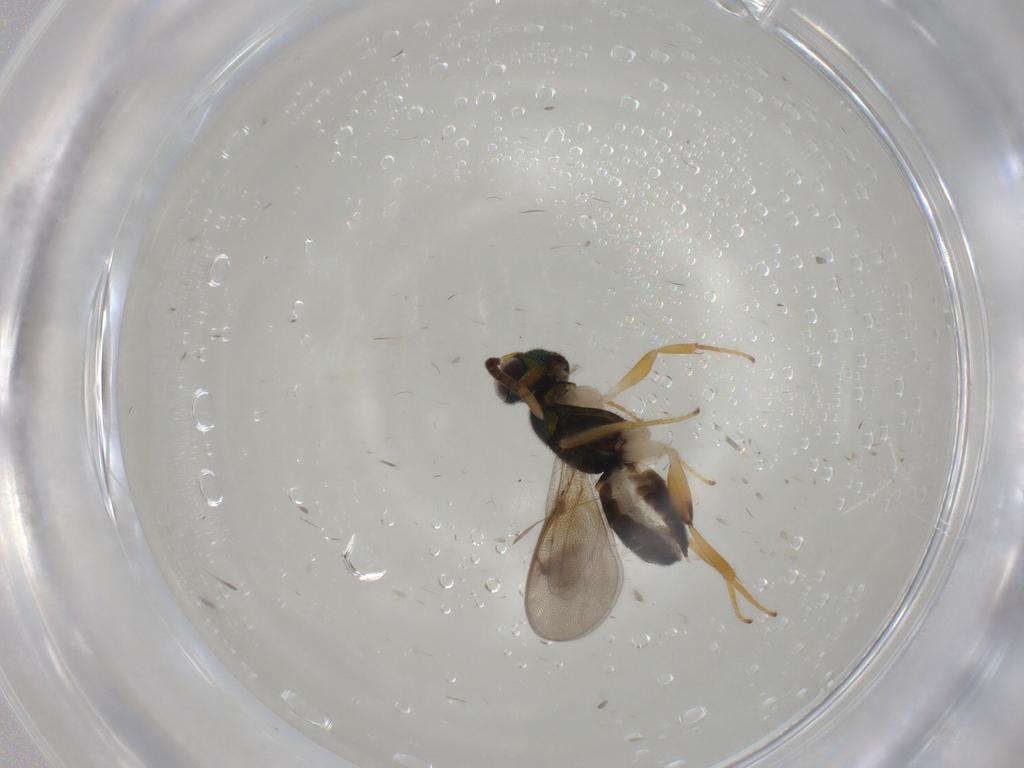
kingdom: Animalia
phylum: Arthropoda
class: Insecta
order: Hymenoptera
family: Eupelmidae
